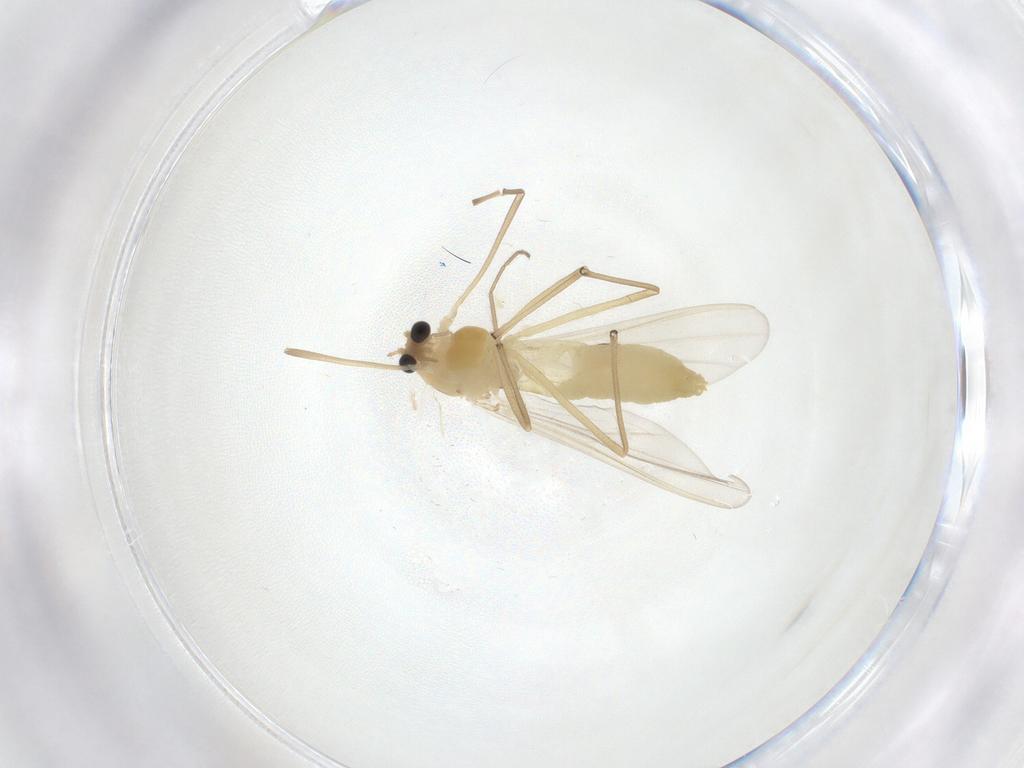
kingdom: Animalia
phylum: Arthropoda
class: Insecta
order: Diptera
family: Chironomidae
